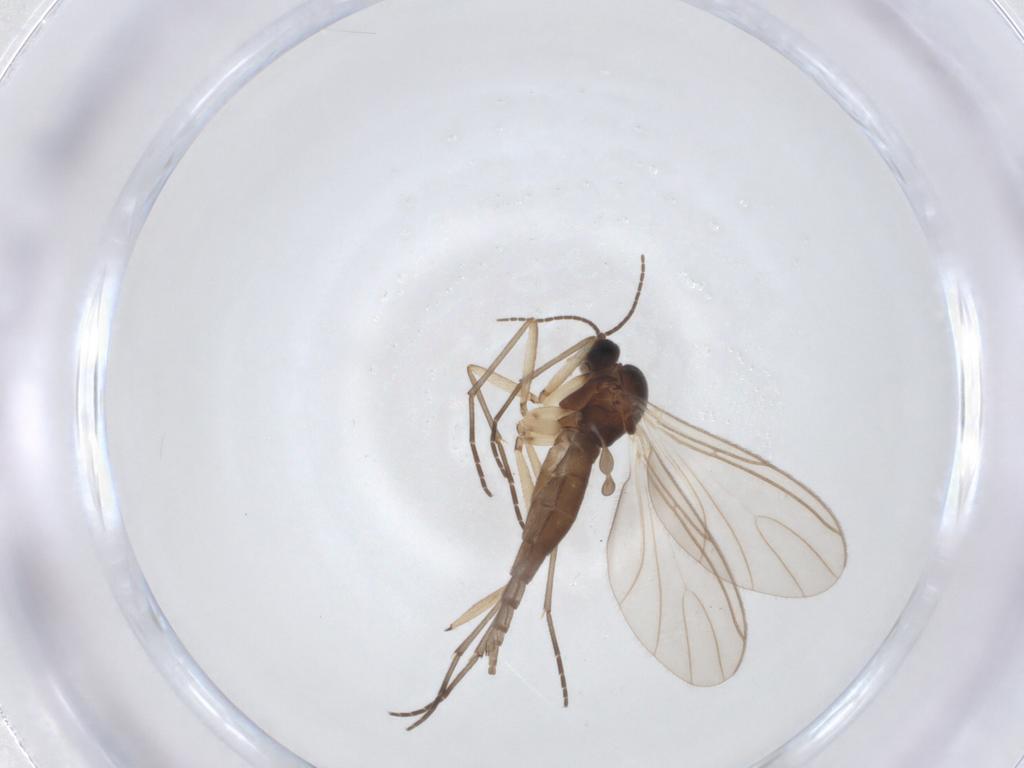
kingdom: Animalia
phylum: Arthropoda
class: Insecta
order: Diptera
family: Sciaridae
